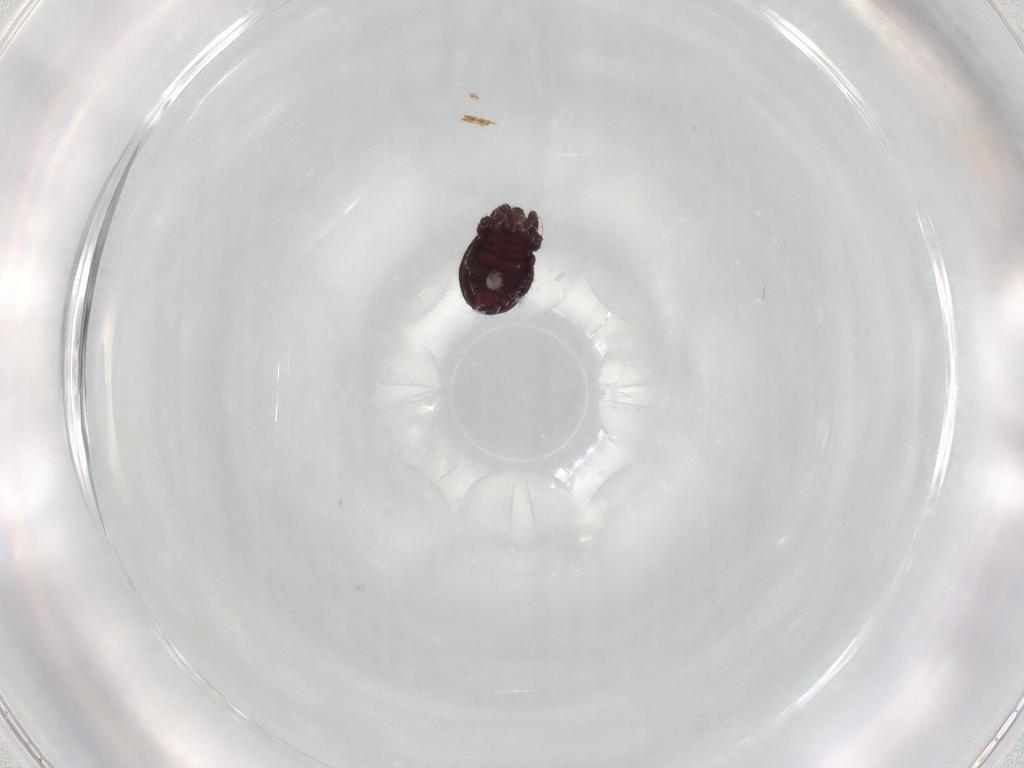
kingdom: Animalia
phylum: Arthropoda
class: Arachnida
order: Sarcoptiformes
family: Hermanniidae
